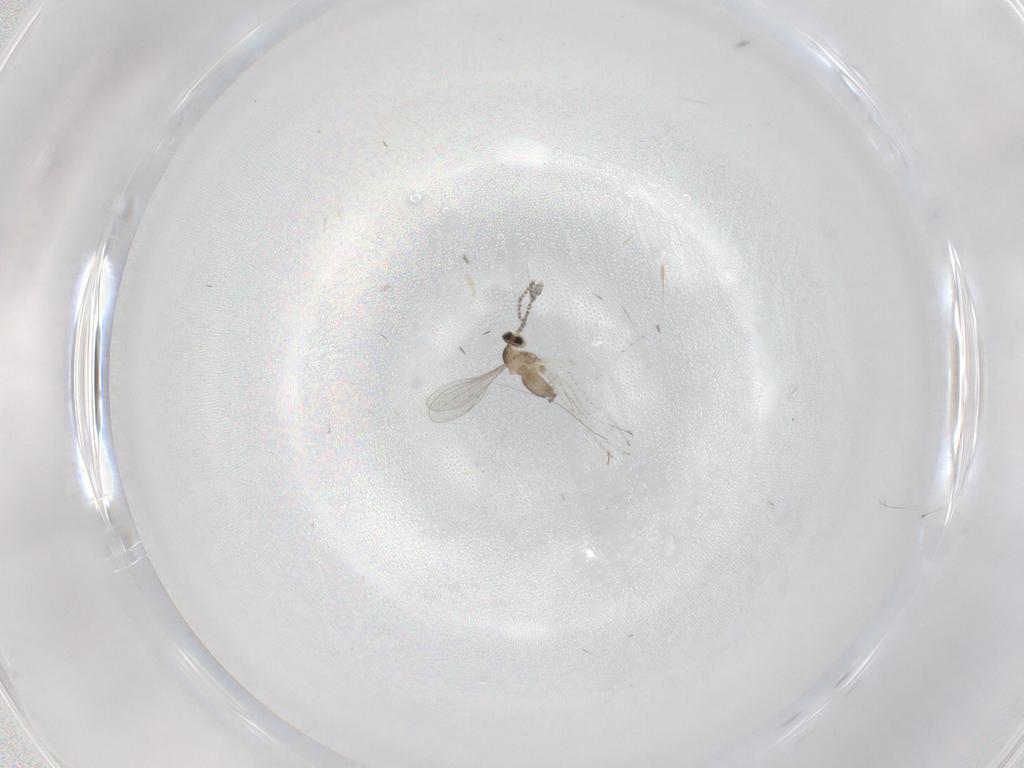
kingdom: Animalia
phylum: Arthropoda
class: Insecta
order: Diptera
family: Cecidomyiidae
